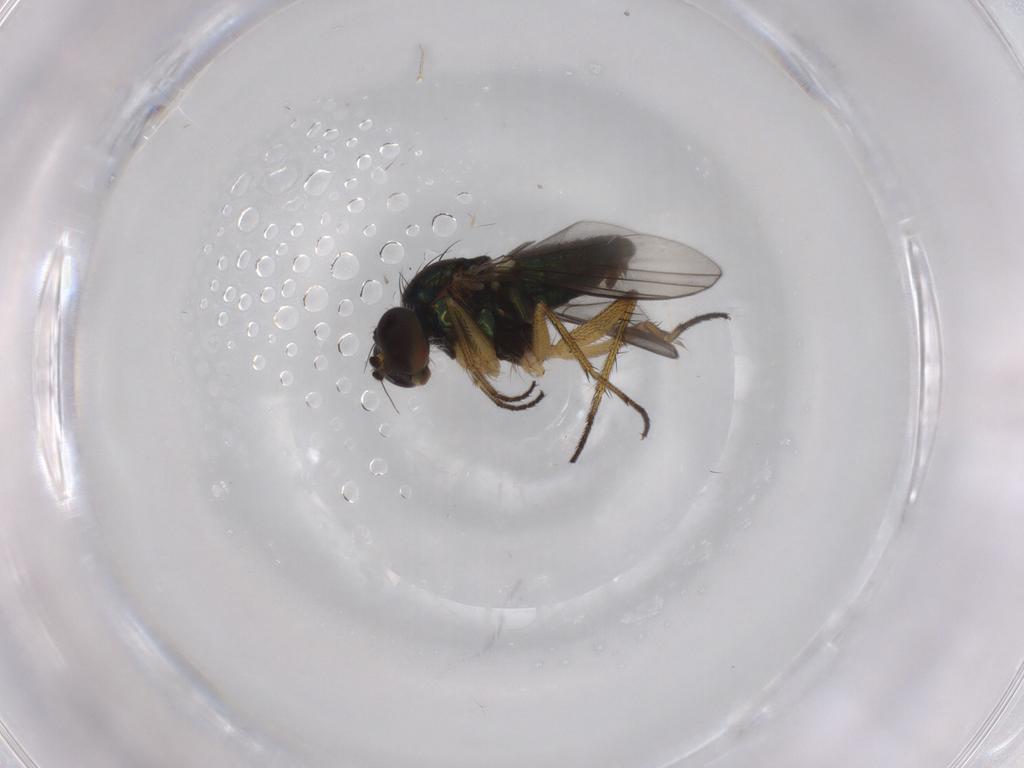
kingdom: Animalia
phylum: Arthropoda
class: Insecta
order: Diptera
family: Dolichopodidae
